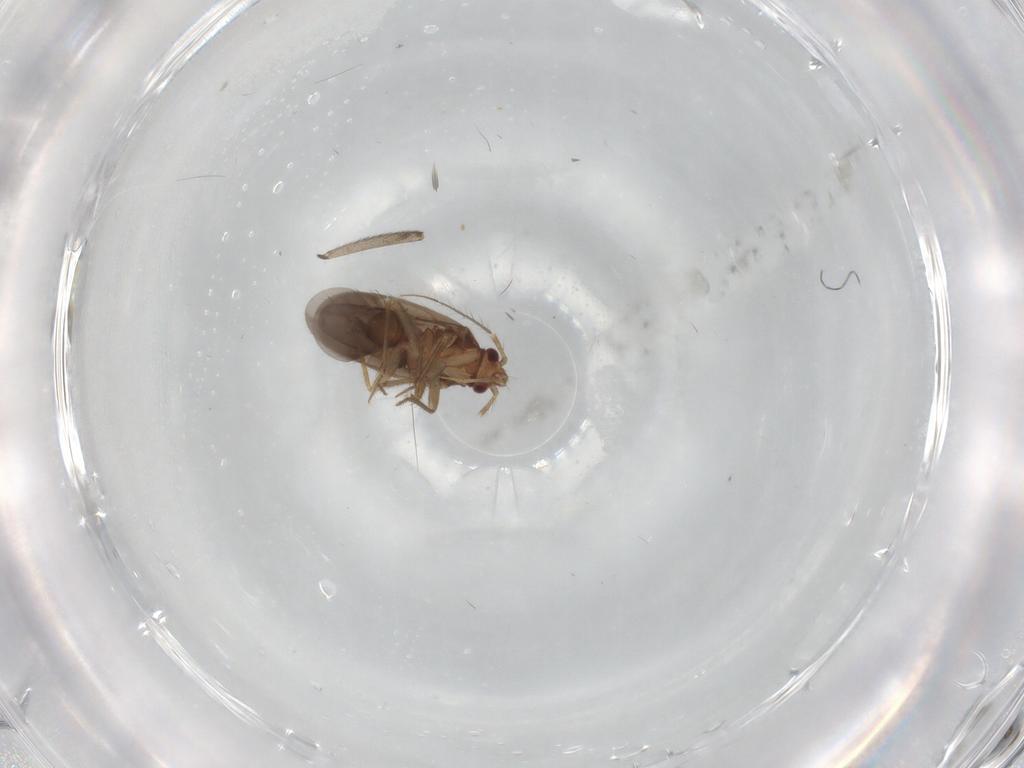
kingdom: Animalia
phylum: Arthropoda
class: Insecta
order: Hemiptera
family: Ceratocombidae
